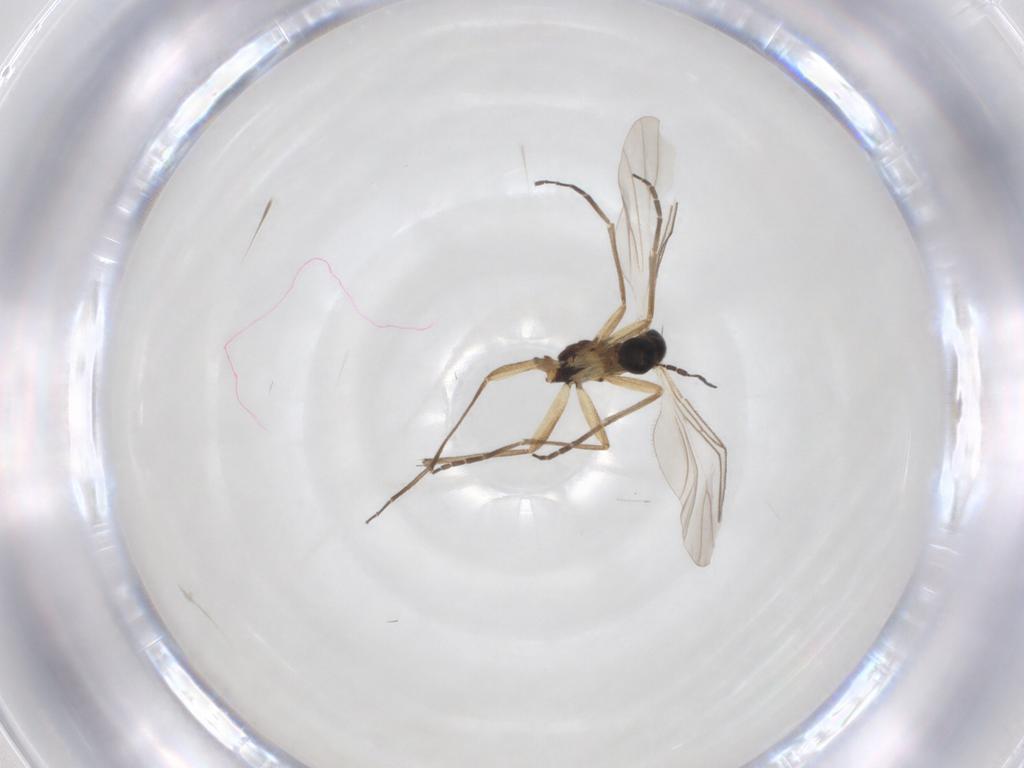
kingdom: Animalia
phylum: Arthropoda
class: Insecta
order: Diptera
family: Sciaridae
